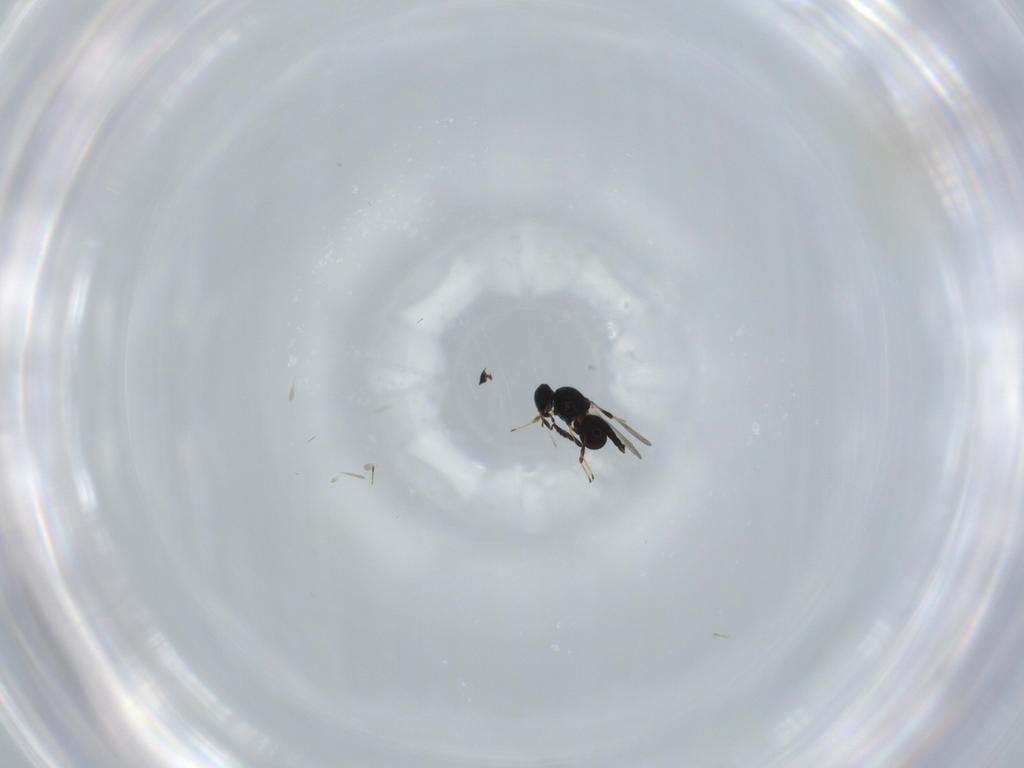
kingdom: Animalia
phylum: Arthropoda
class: Insecta
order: Hymenoptera
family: Platygastridae
